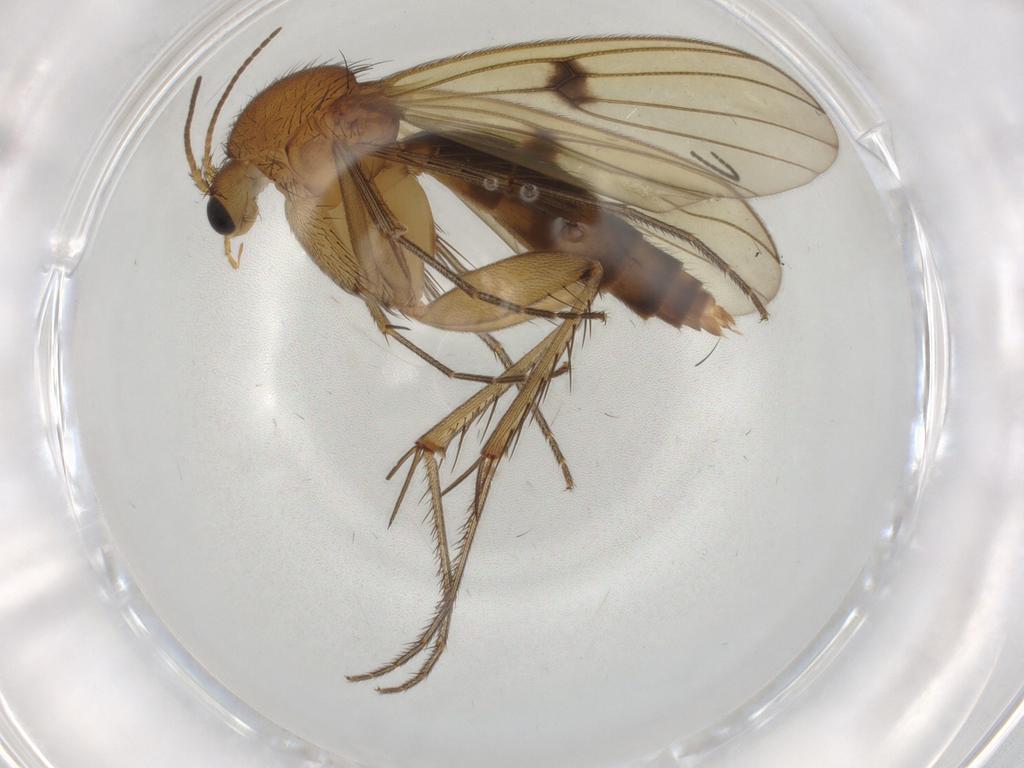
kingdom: Animalia
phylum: Arthropoda
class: Insecta
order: Diptera
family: Mycetophilidae
